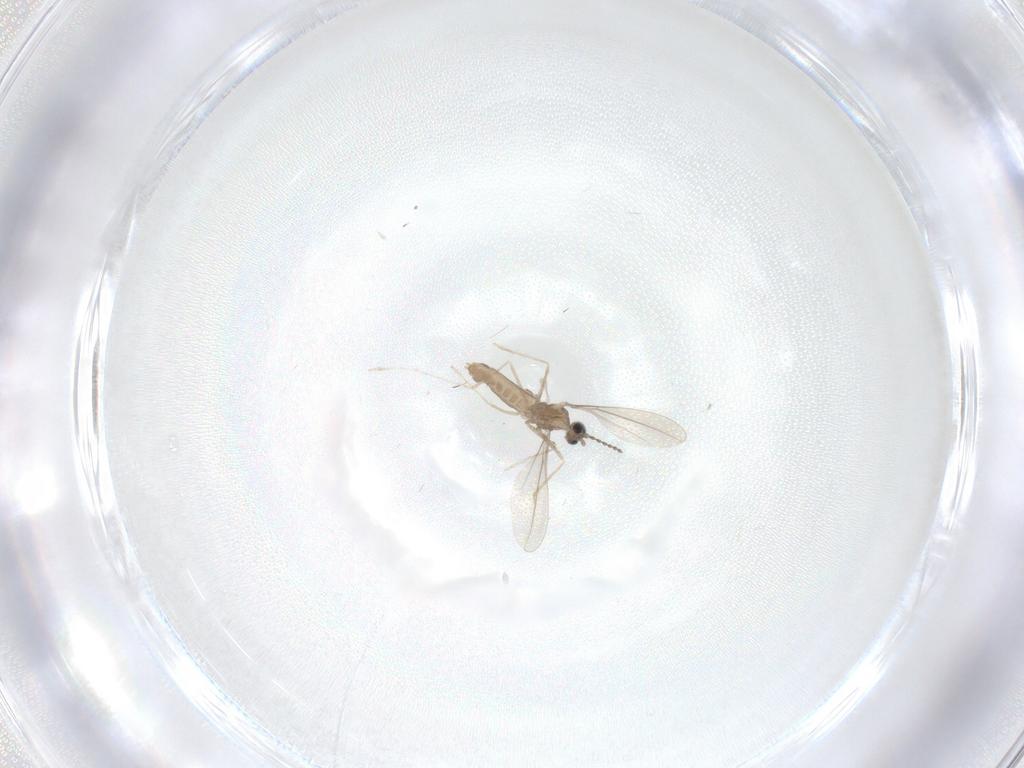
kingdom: Animalia
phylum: Arthropoda
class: Insecta
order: Diptera
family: Cecidomyiidae
